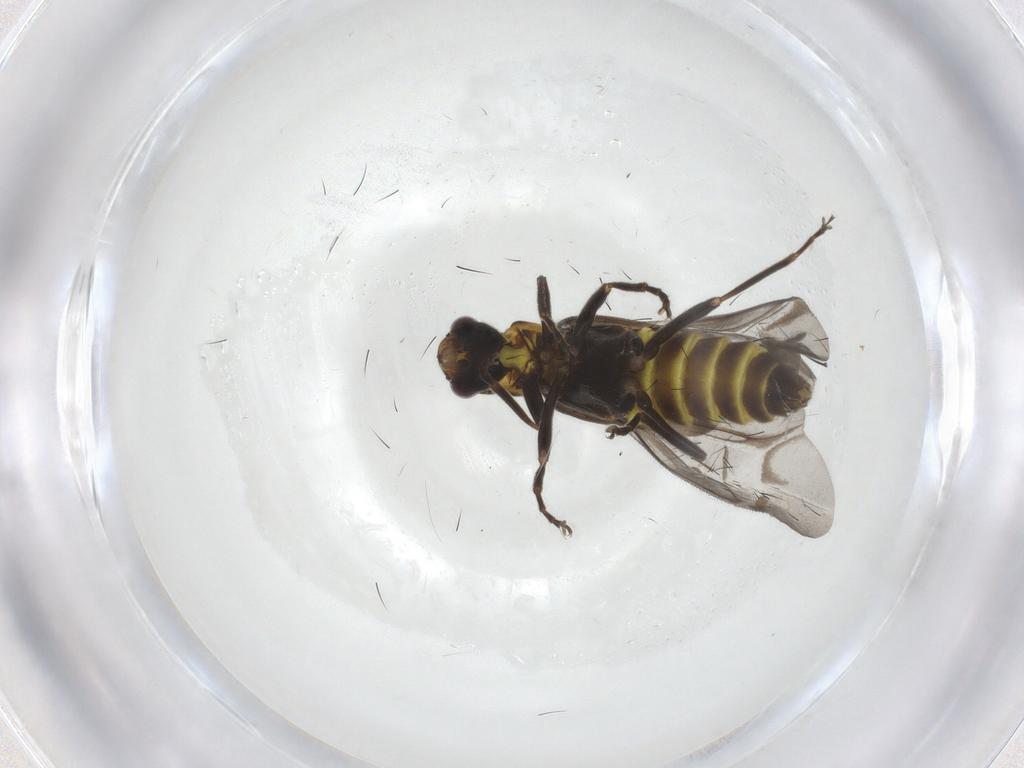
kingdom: Animalia
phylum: Arthropoda
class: Insecta
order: Coleoptera
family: Cantharidae
